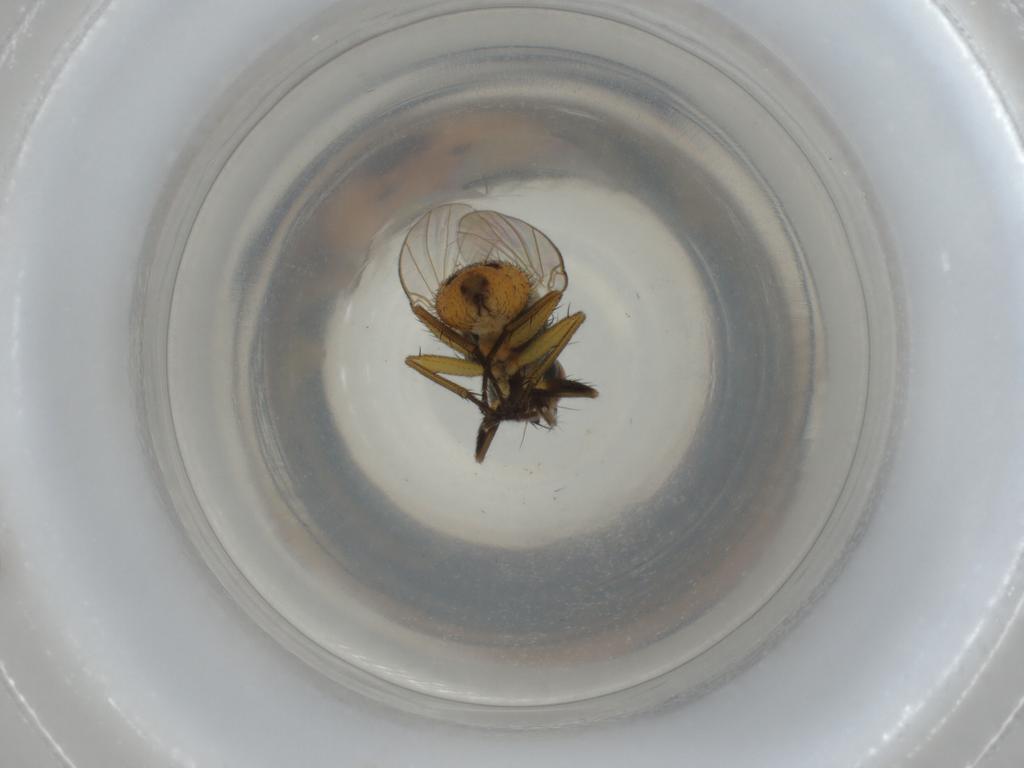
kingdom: Animalia
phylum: Arthropoda
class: Insecta
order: Diptera
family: Muscidae
